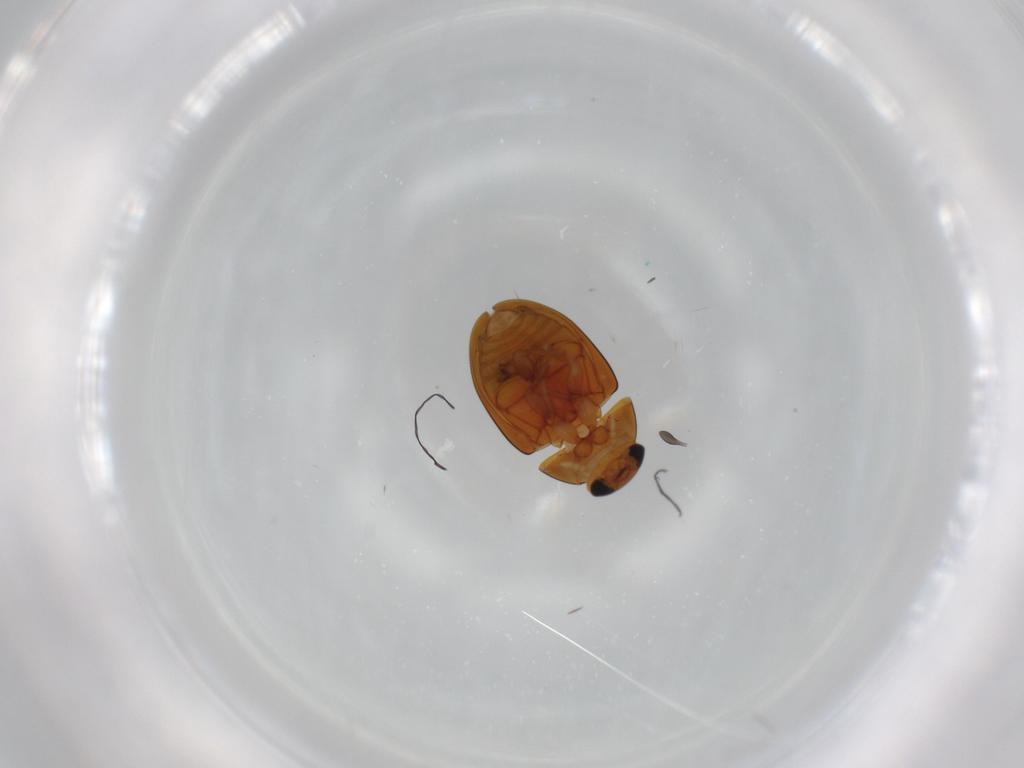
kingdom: Animalia
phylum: Arthropoda
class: Insecta
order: Coleoptera
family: Phalacridae
